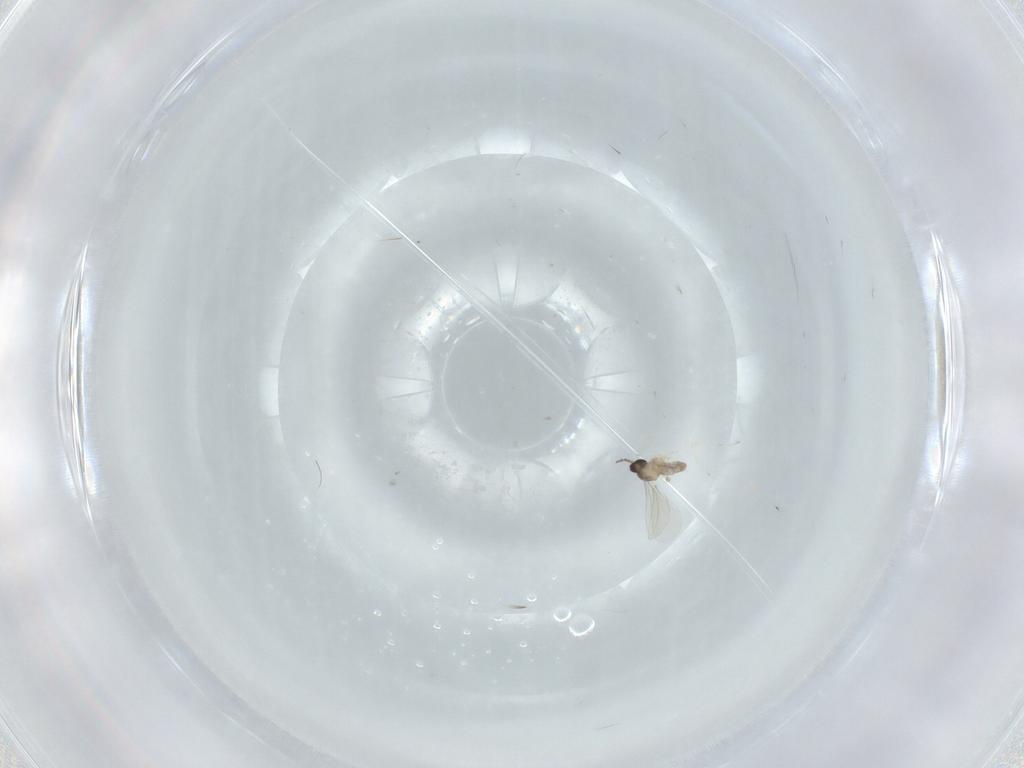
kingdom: Animalia
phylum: Arthropoda
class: Insecta
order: Diptera
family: Cecidomyiidae
